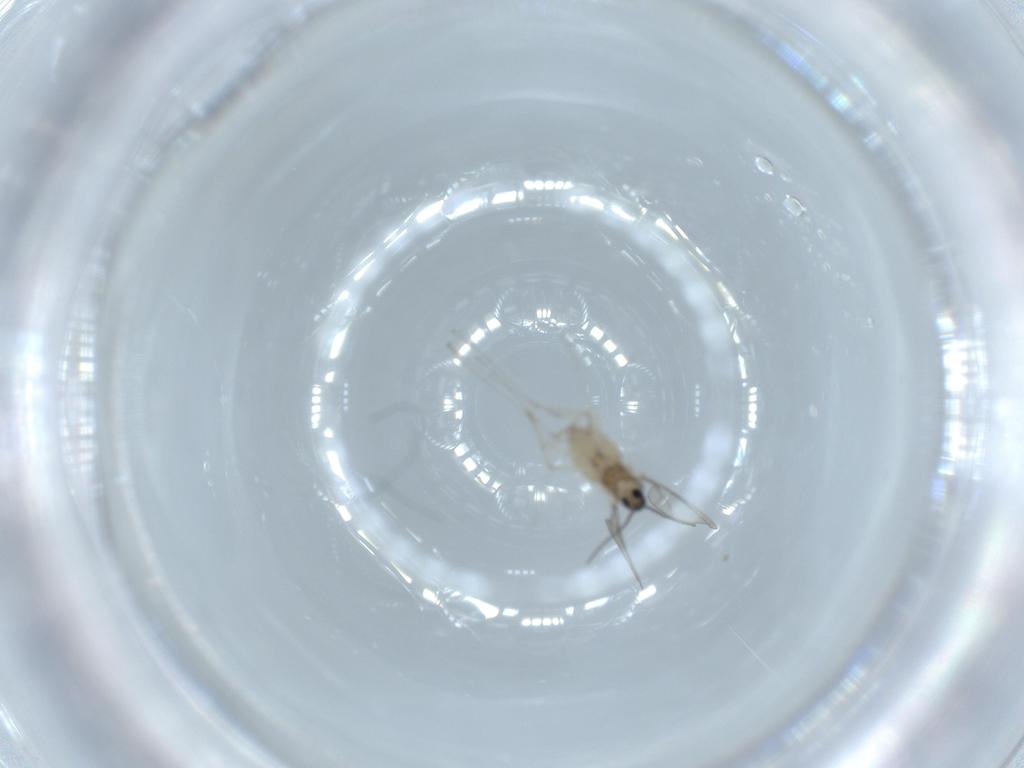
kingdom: Animalia
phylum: Arthropoda
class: Insecta
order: Diptera
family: Cecidomyiidae
